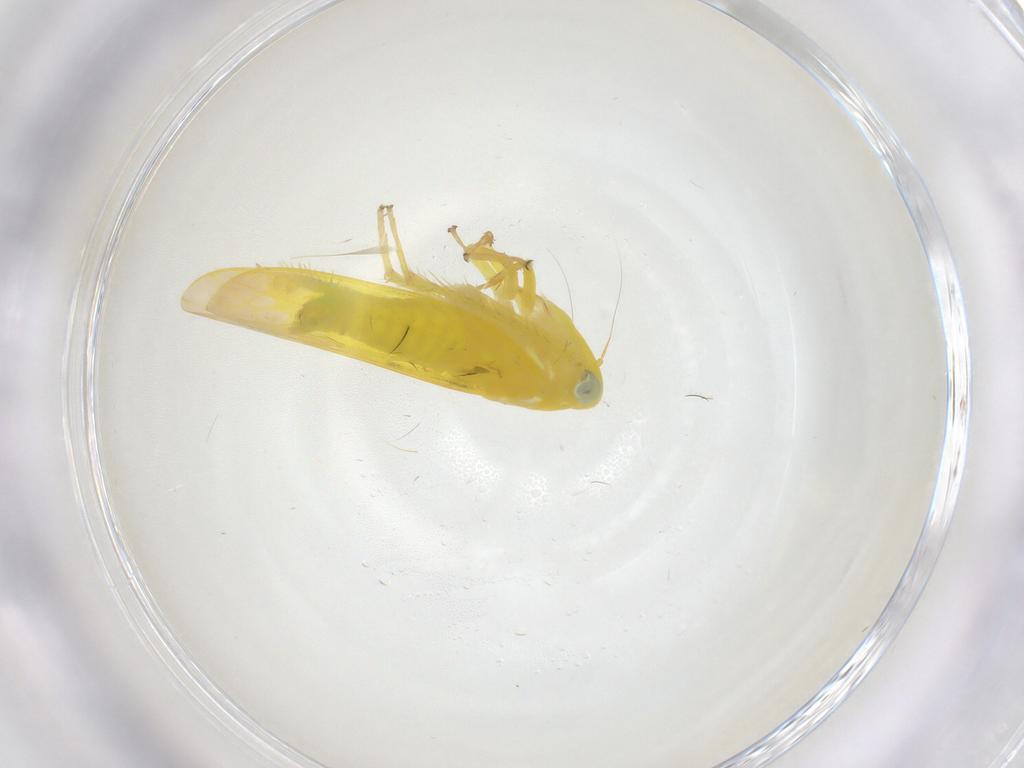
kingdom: Animalia
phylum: Arthropoda
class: Insecta
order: Hemiptera
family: Cicadellidae
